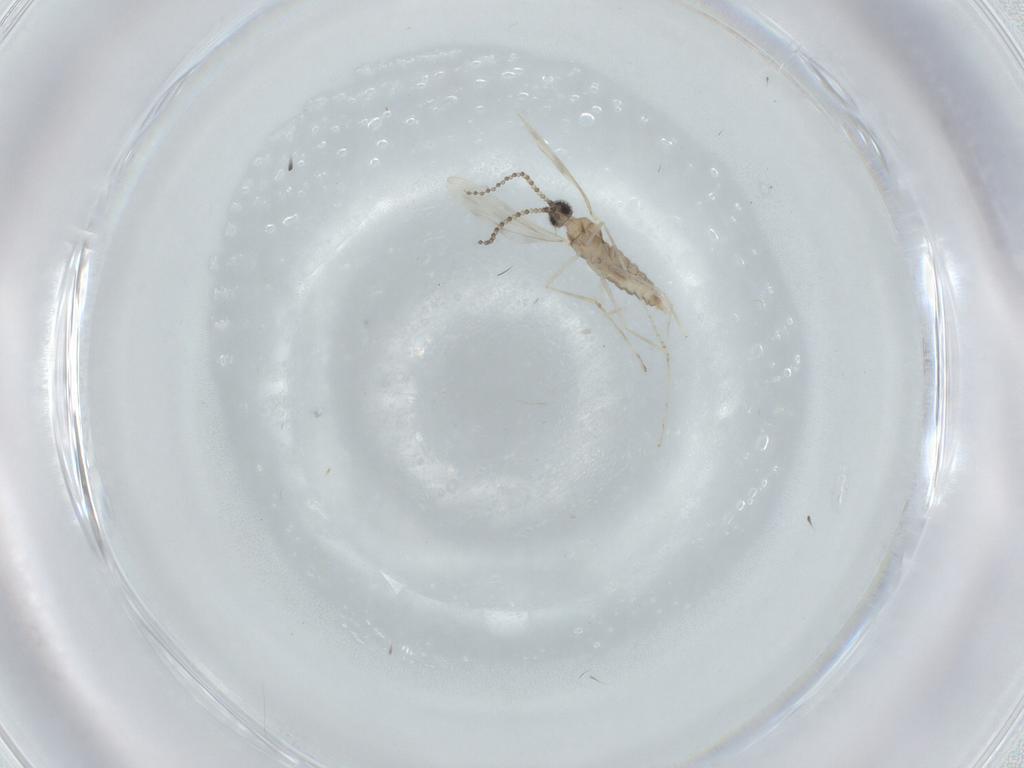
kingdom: Animalia
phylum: Arthropoda
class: Insecta
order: Diptera
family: Cecidomyiidae
